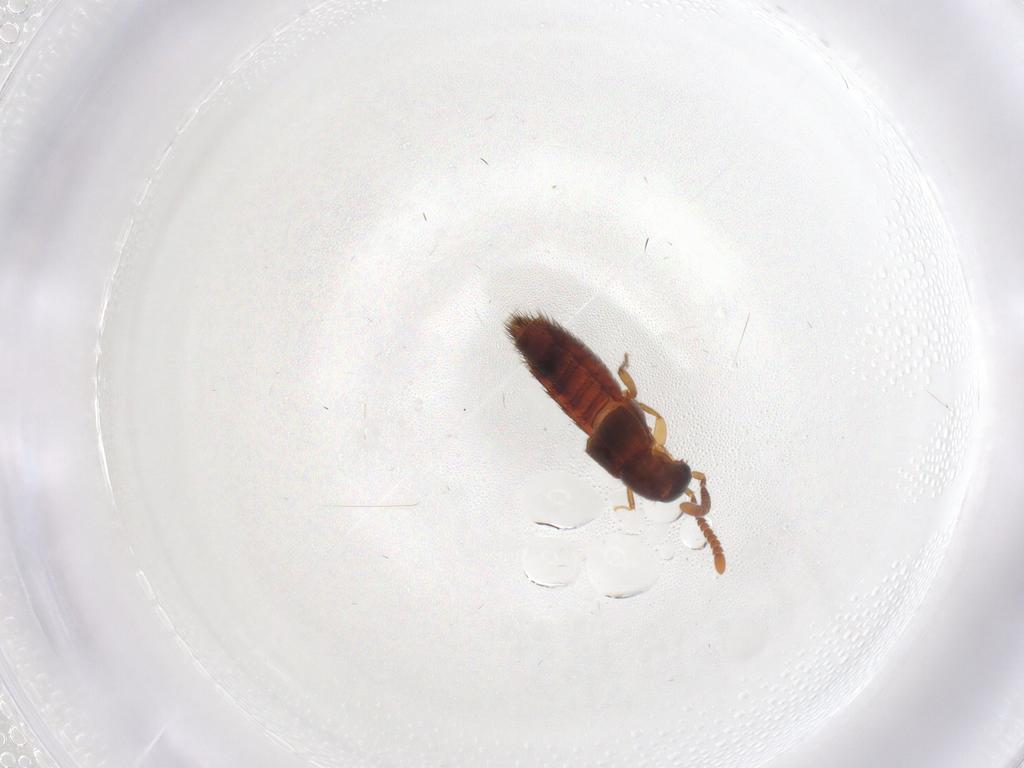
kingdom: Animalia
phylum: Arthropoda
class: Insecta
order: Coleoptera
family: Staphylinidae
